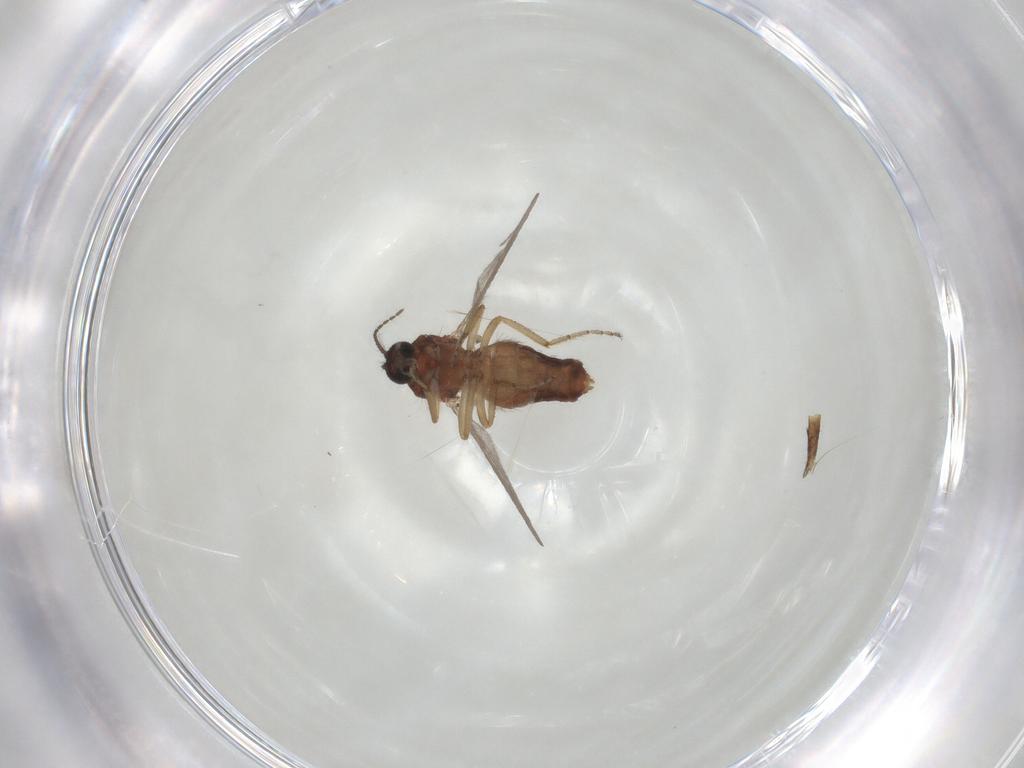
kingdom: Animalia
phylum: Arthropoda
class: Insecta
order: Diptera
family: Ceratopogonidae
